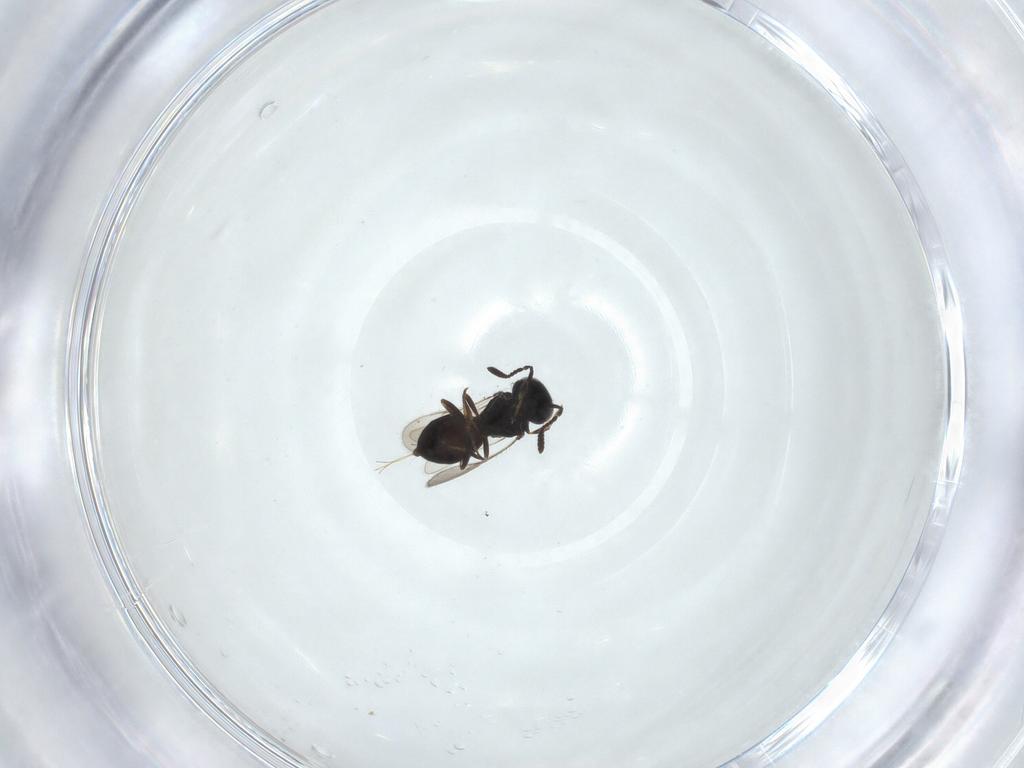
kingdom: Animalia
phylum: Arthropoda
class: Insecta
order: Hymenoptera
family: Scelionidae
